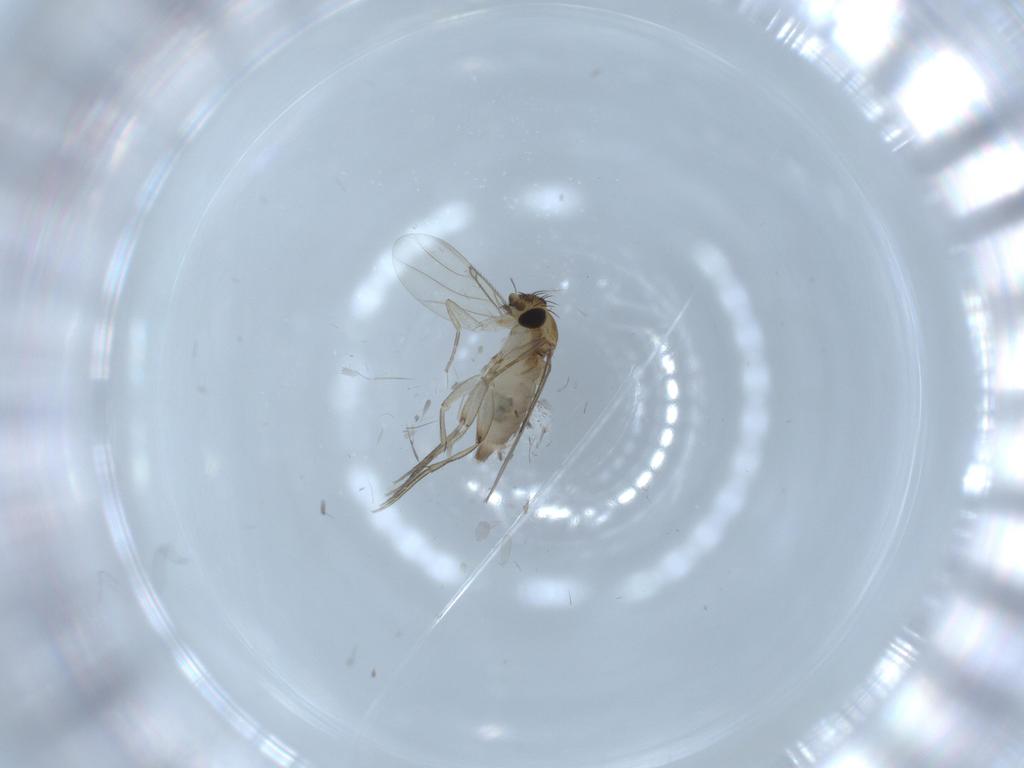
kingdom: Animalia
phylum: Arthropoda
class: Insecta
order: Diptera
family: Phoridae
